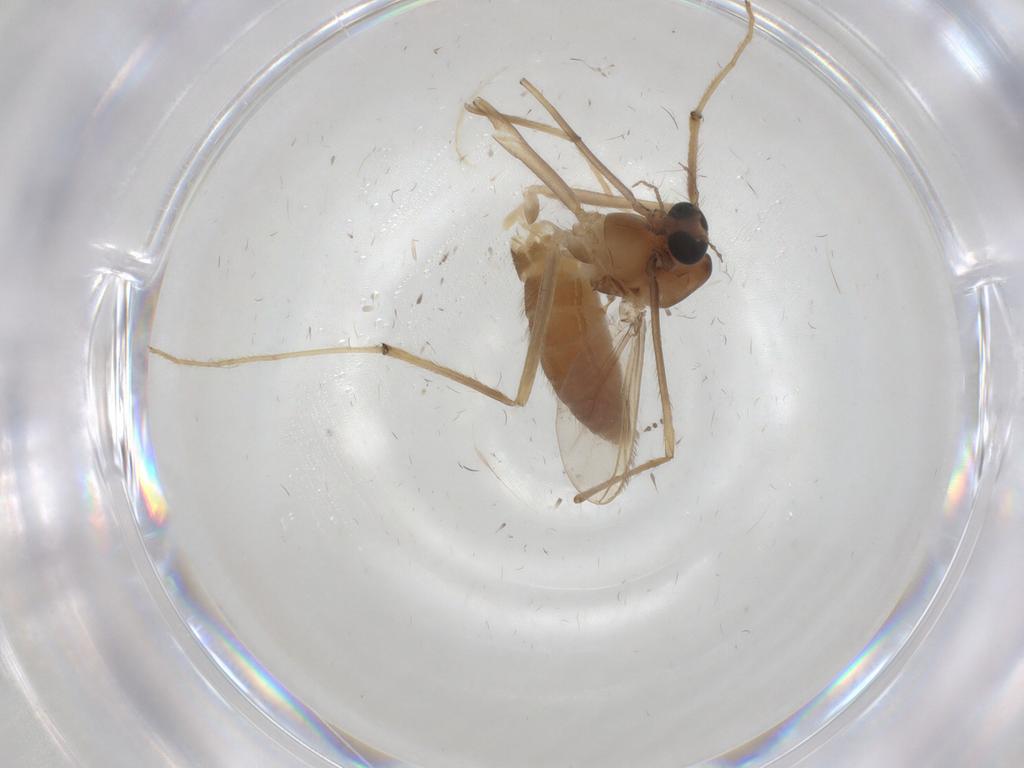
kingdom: Animalia
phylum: Arthropoda
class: Insecta
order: Diptera
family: Chironomidae
